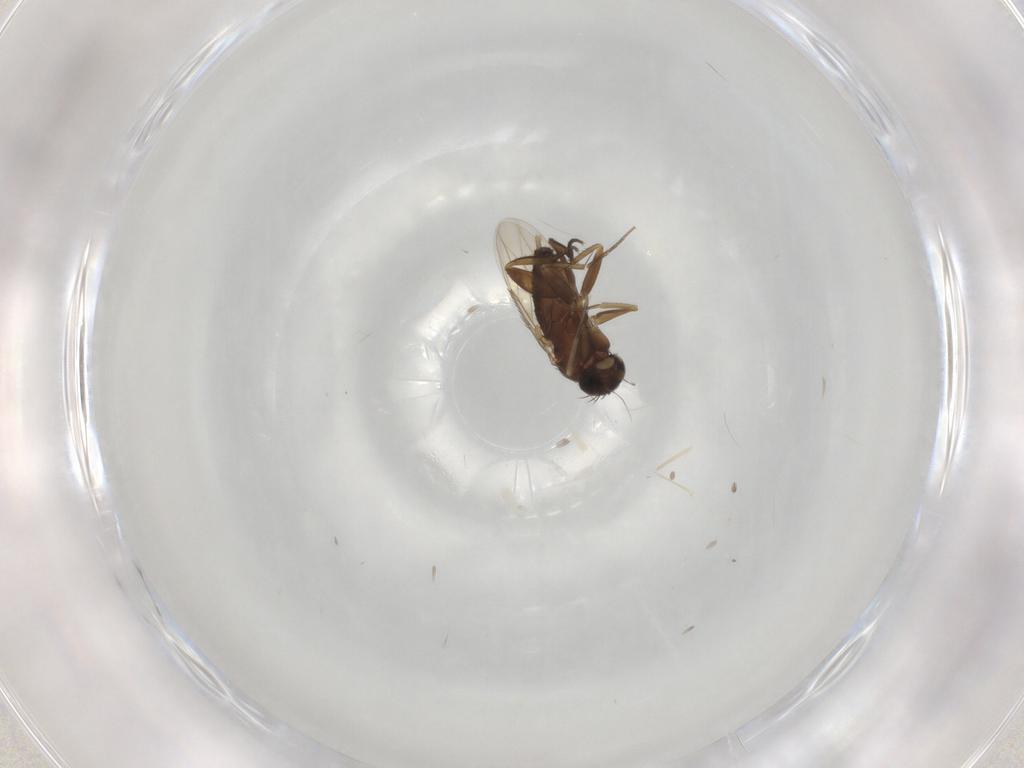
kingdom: Animalia
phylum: Arthropoda
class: Insecta
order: Diptera
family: Phoridae
